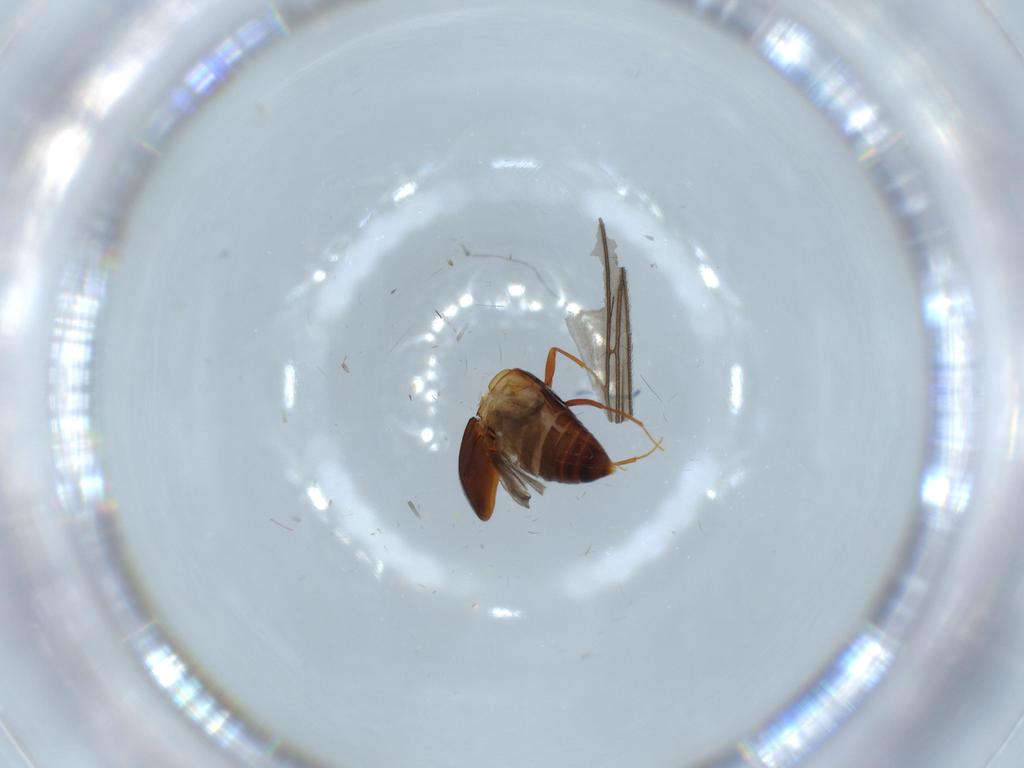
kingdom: Animalia
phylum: Arthropoda
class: Insecta
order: Coleoptera
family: Staphylinidae
